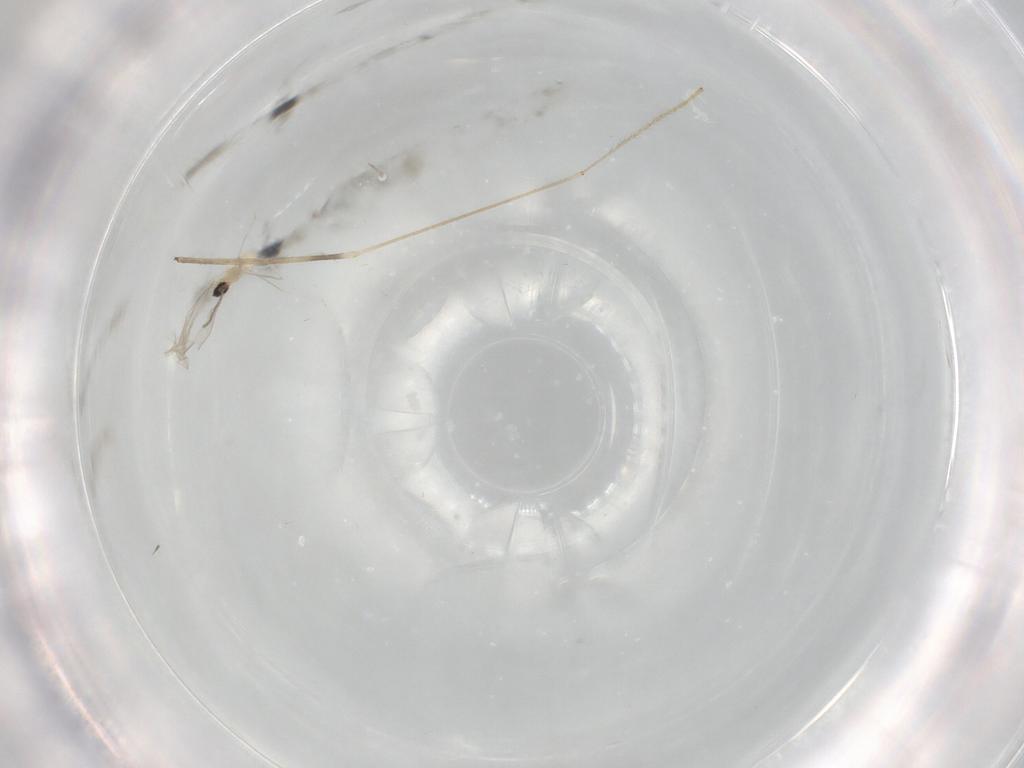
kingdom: Animalia
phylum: Arthropoda
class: Insecta
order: Diptera
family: Cecidomyiidae
